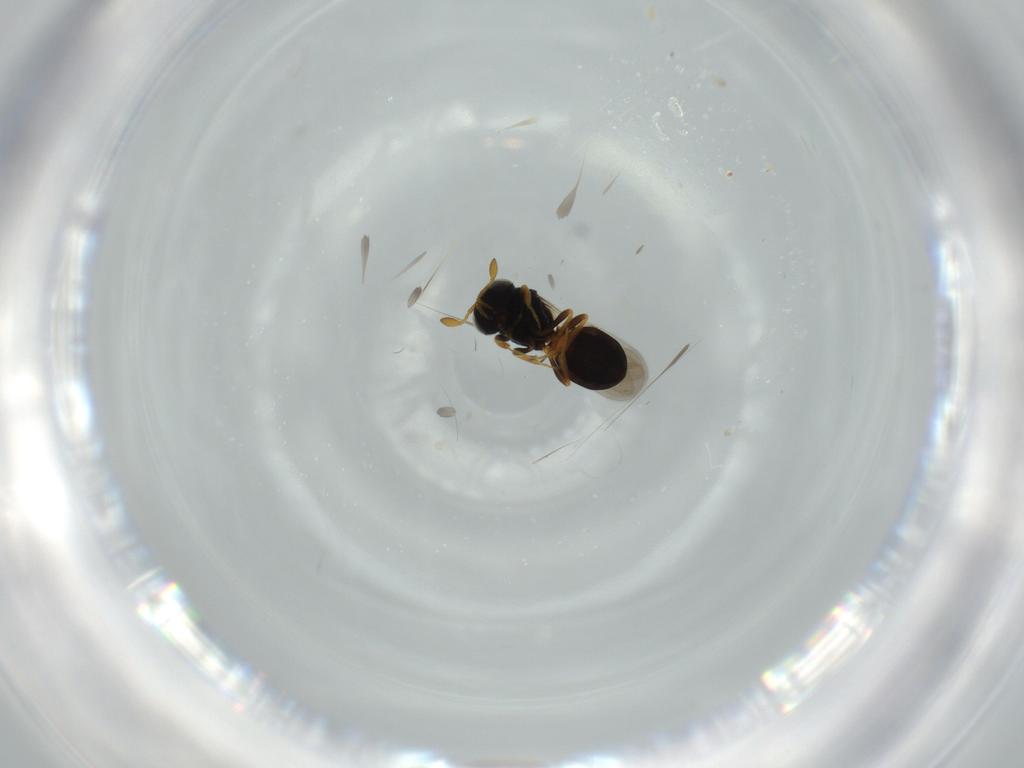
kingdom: Animalia
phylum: Arthropoda
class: Insecta
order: Hymenoptera
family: Scelionidae
